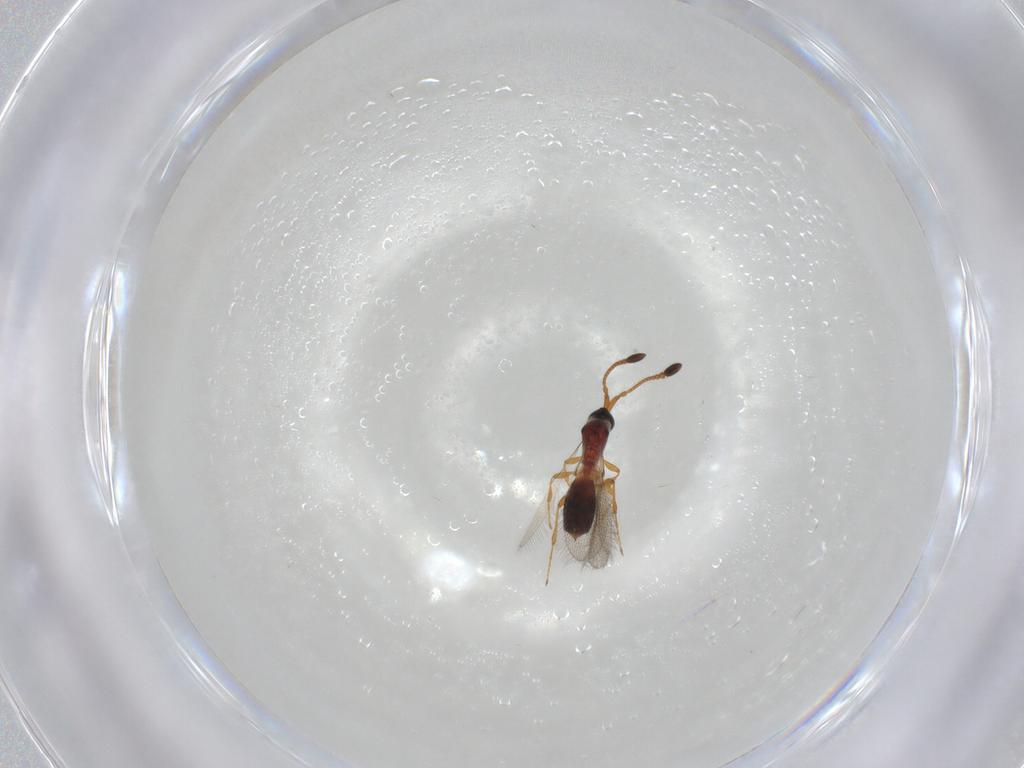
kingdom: Animalia
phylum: Arthropoda
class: Insecta
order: Hymenoptera
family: Diapriidae
